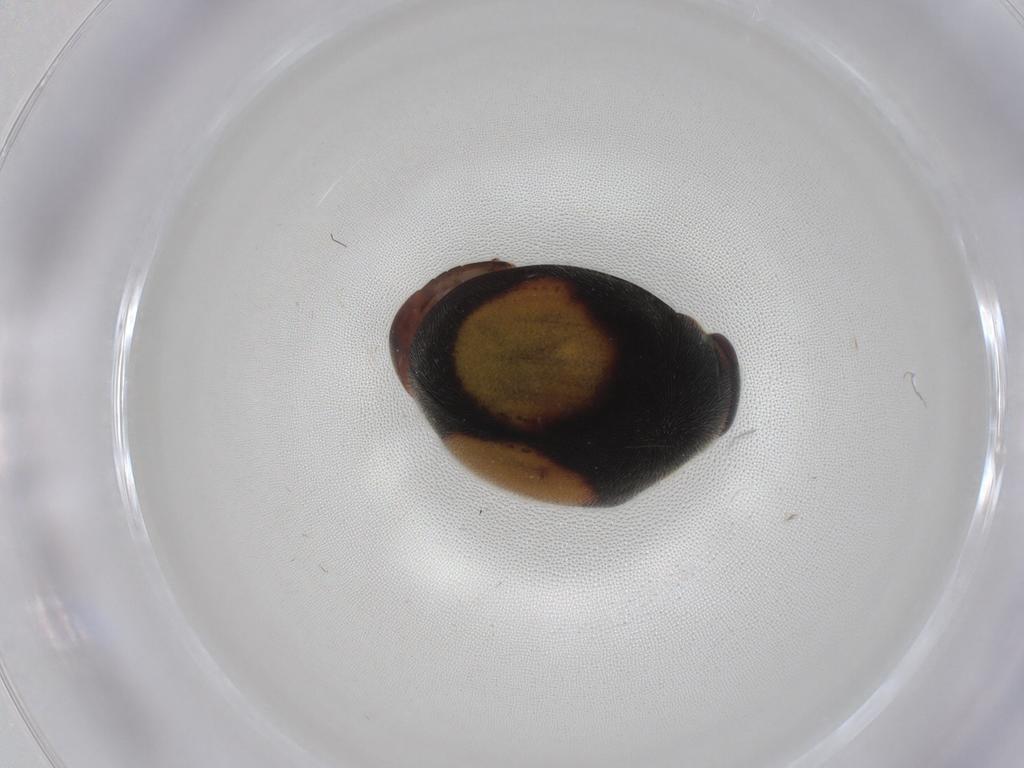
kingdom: Animalia
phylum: Arthropoda
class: Insecta
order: Coleoptera
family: Coccinellidae
